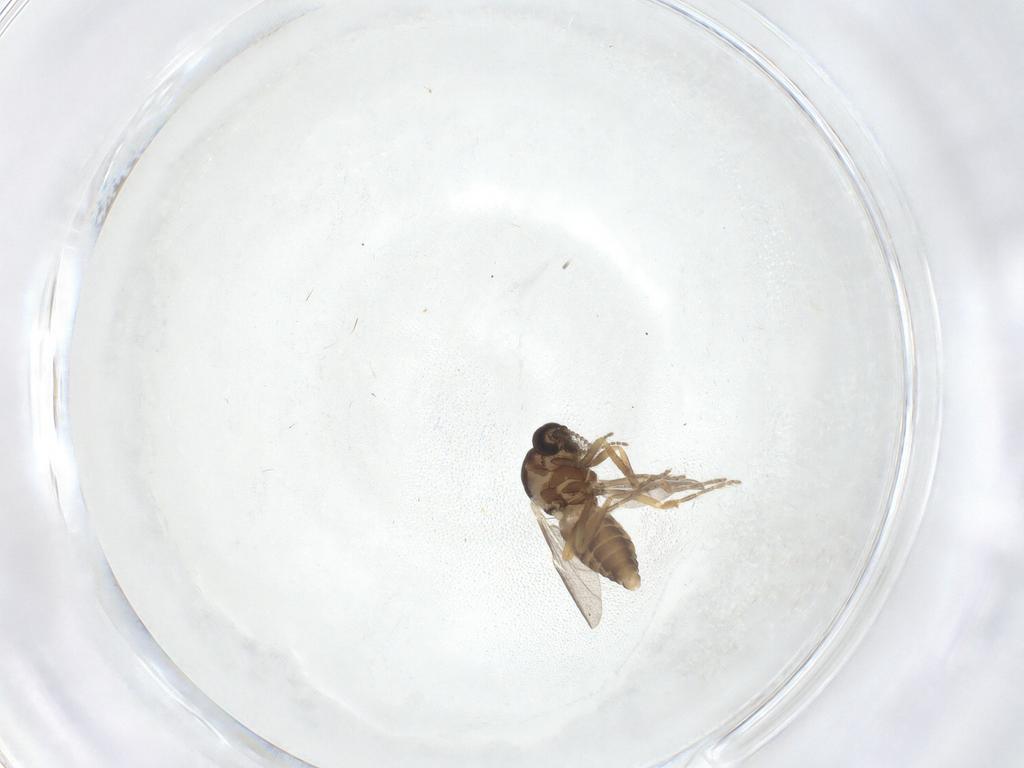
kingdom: Animalia
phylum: Arthropoda
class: Insecta
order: Diptera
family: Ceratopogonidae
